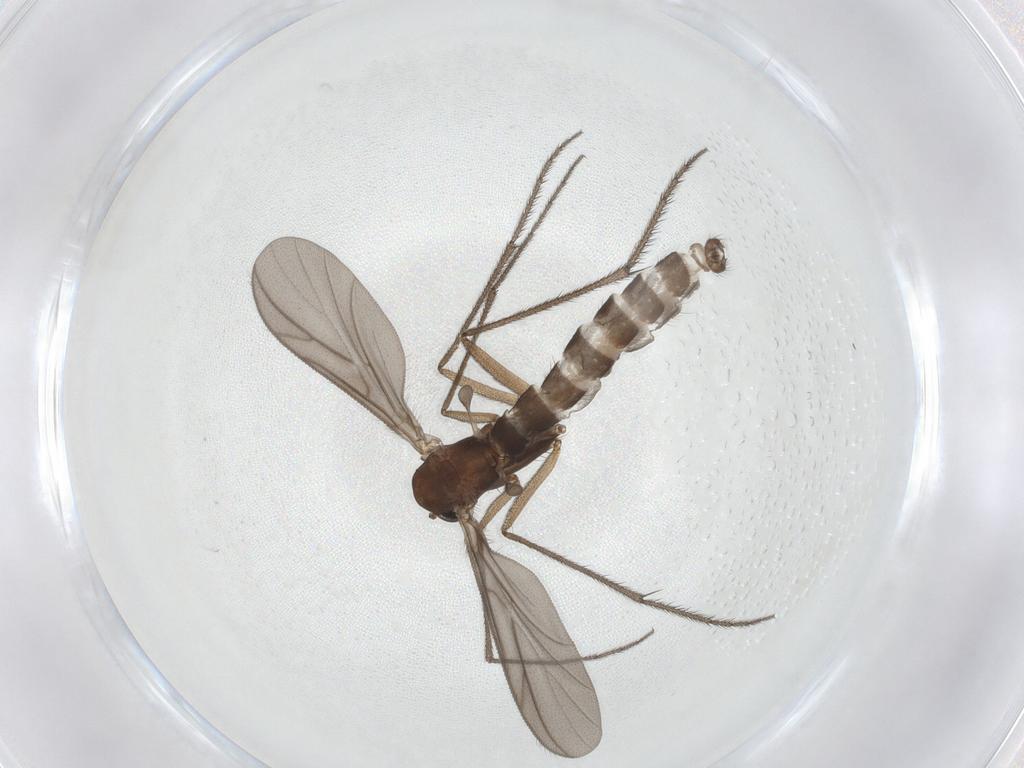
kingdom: Animalia
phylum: Arthropoda
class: Insecta
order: Diptera
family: Ditomyiidae
